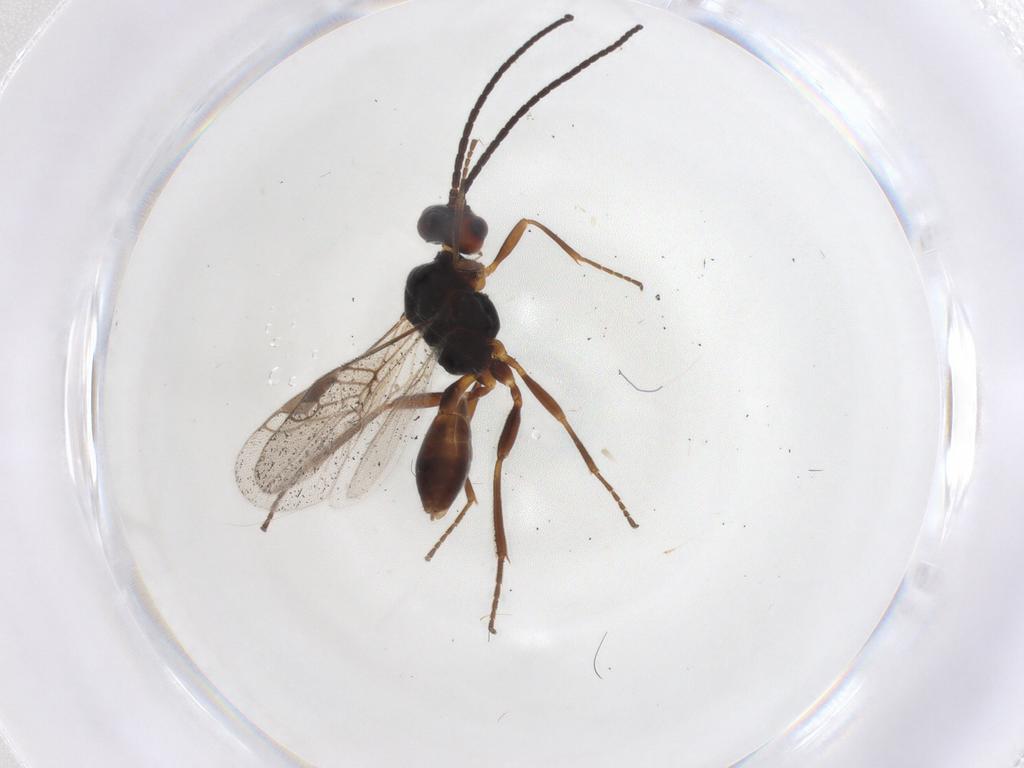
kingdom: Animalia
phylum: Arthropoda
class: Insecta
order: Hymenoptera
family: Braconidae
